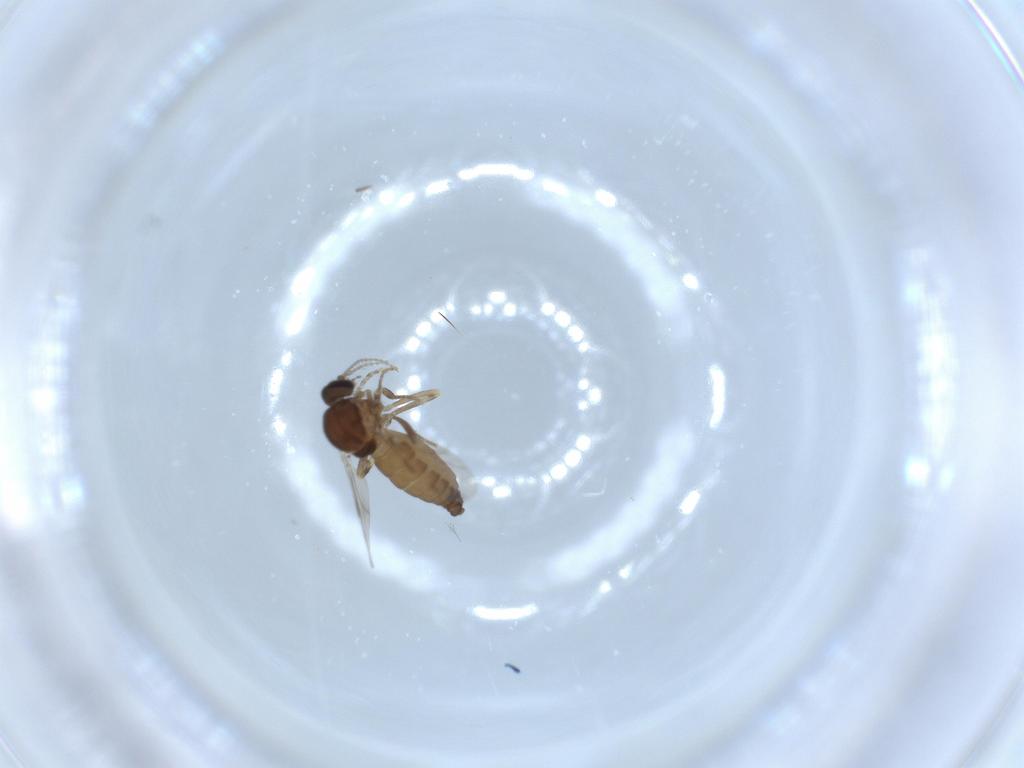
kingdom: Animalia
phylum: Arthropoda
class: Insecta
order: Diptera
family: Ceratopogonidae
